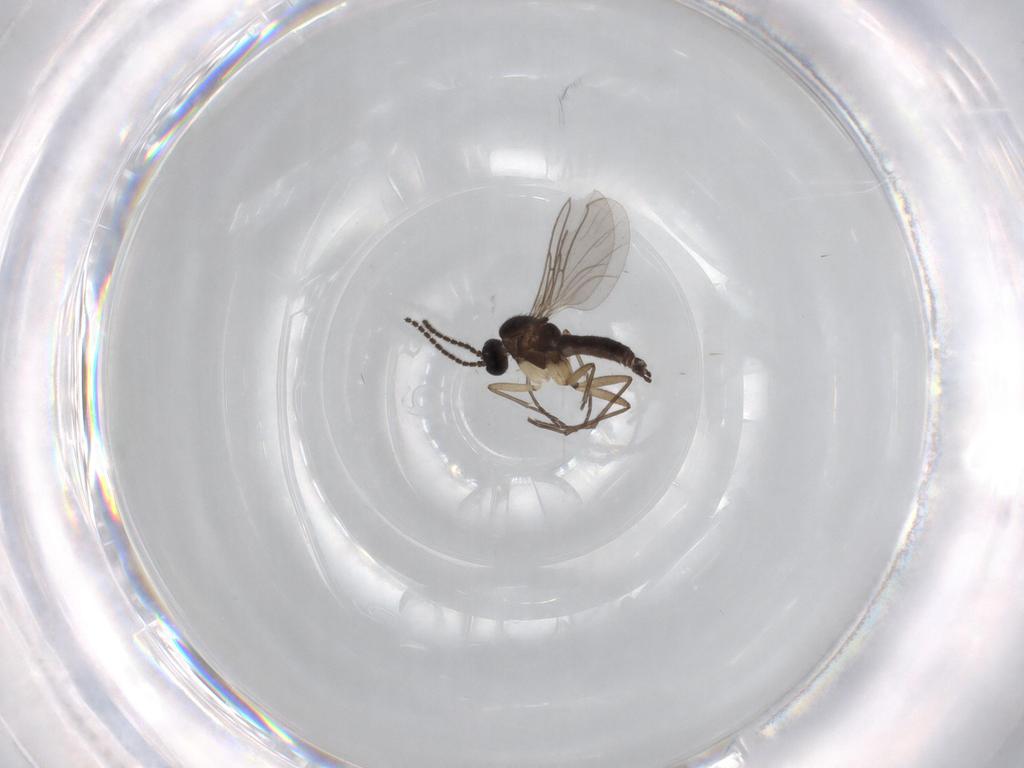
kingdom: Animalia
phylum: Arthropoda
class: Insecta
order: Diptera
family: Sciaridae
